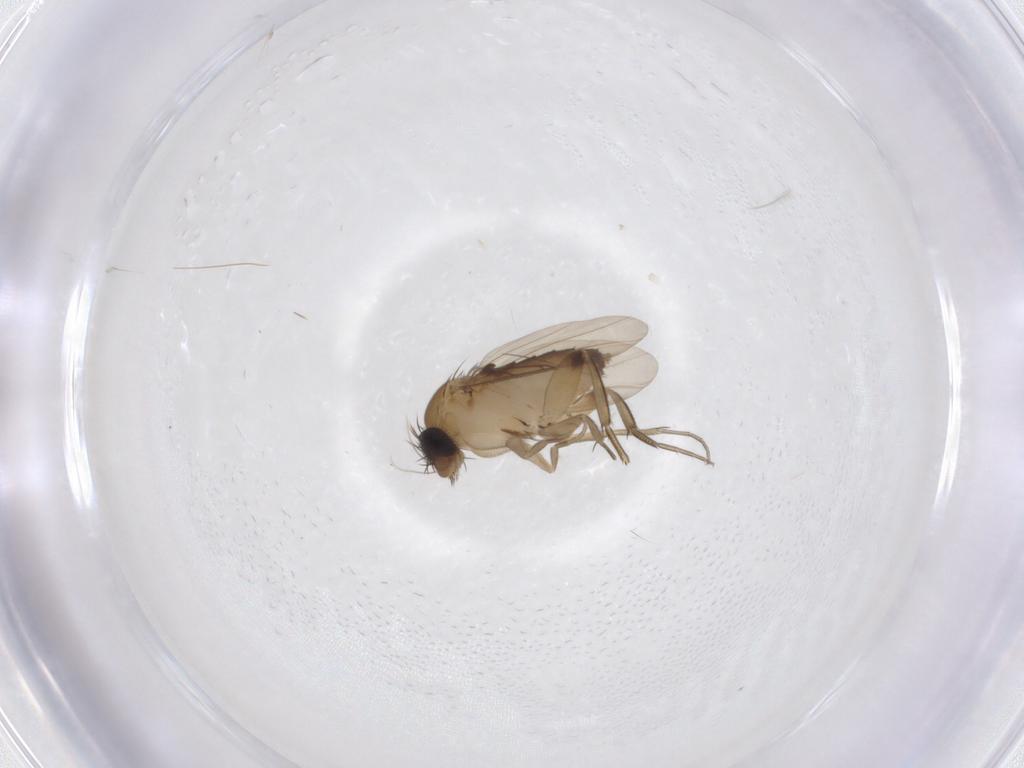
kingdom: Animalia
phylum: Arthropoda
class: Insecta
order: Diptera
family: Phoridae
